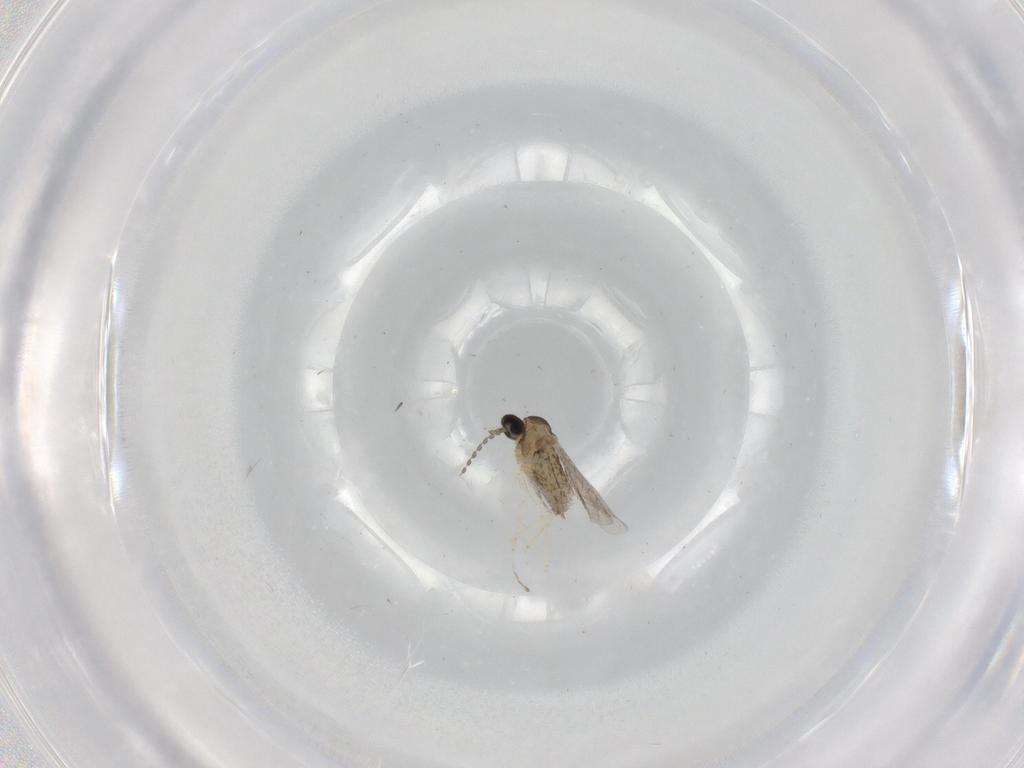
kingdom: Animalia
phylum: Arthropoda
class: Insecta
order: Diptera
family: Cecidomyiidae
